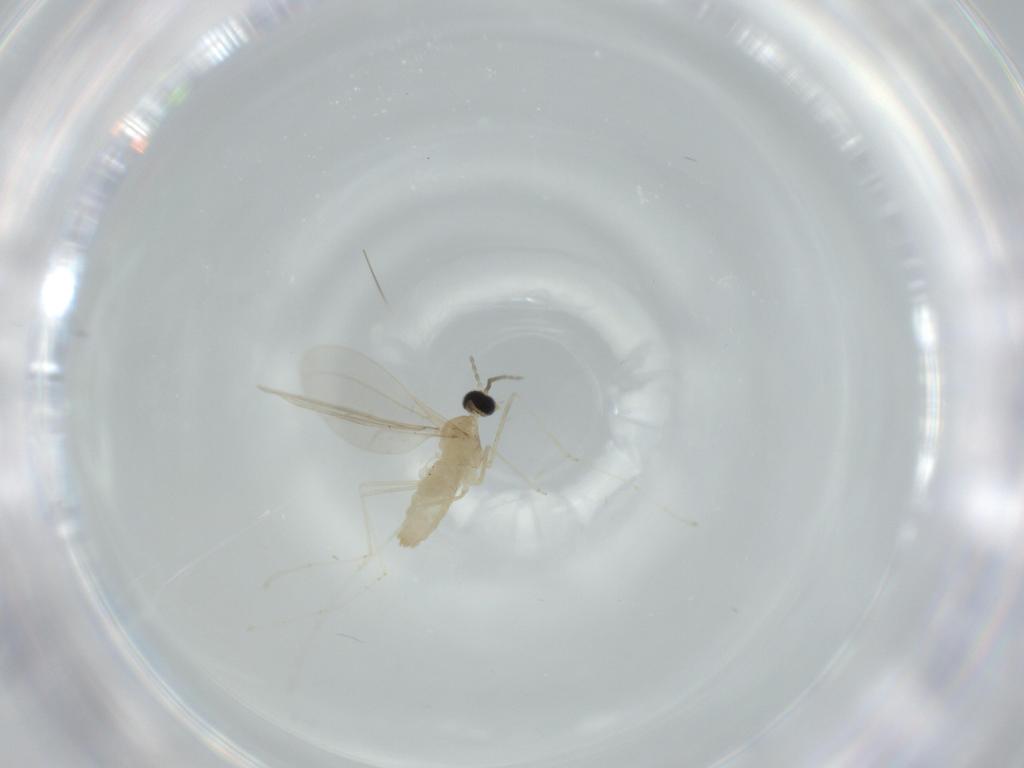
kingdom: Animalia
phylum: Arthropoda
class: Insecta
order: Diptera
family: Cecidomyiidae
